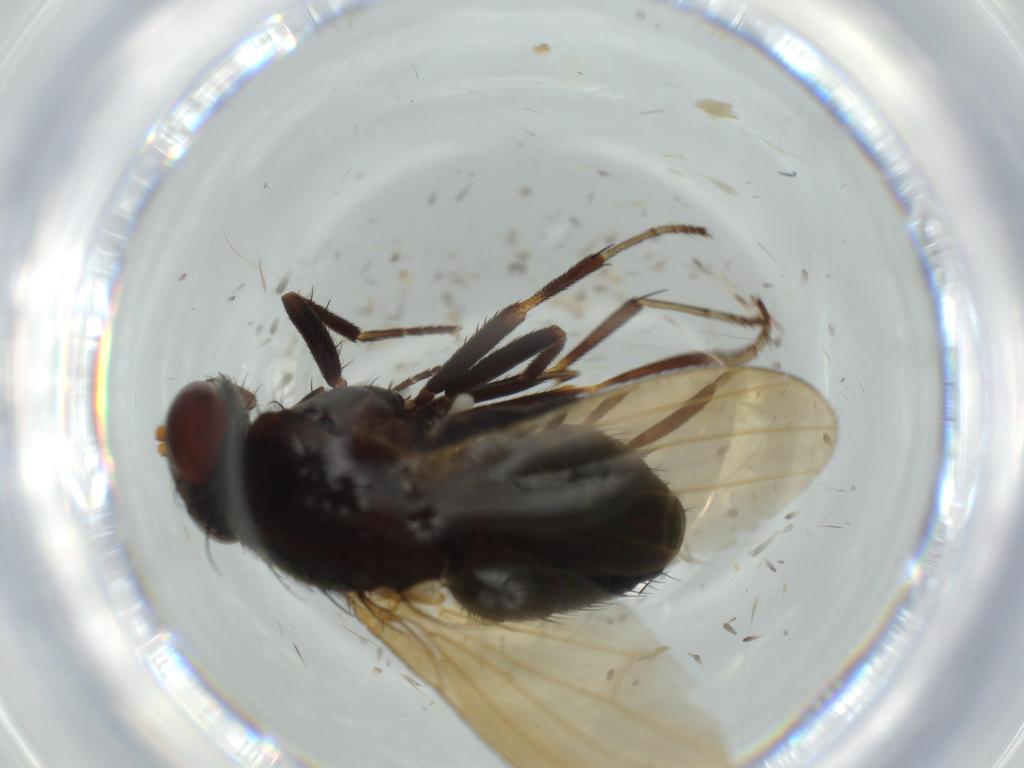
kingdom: Animalia
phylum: Arthropoda
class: Insecta
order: Diptera
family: Lauxaniidae
